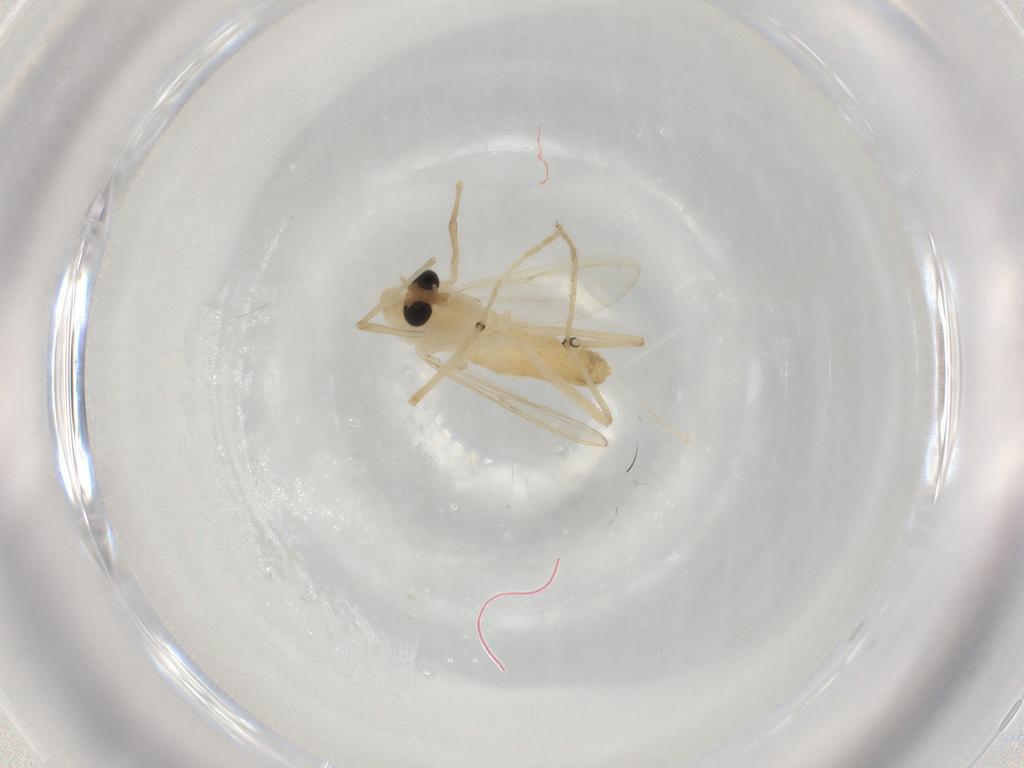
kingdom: Animalia
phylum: Arthropoda
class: Insecta
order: Diptera
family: Chironomidae
